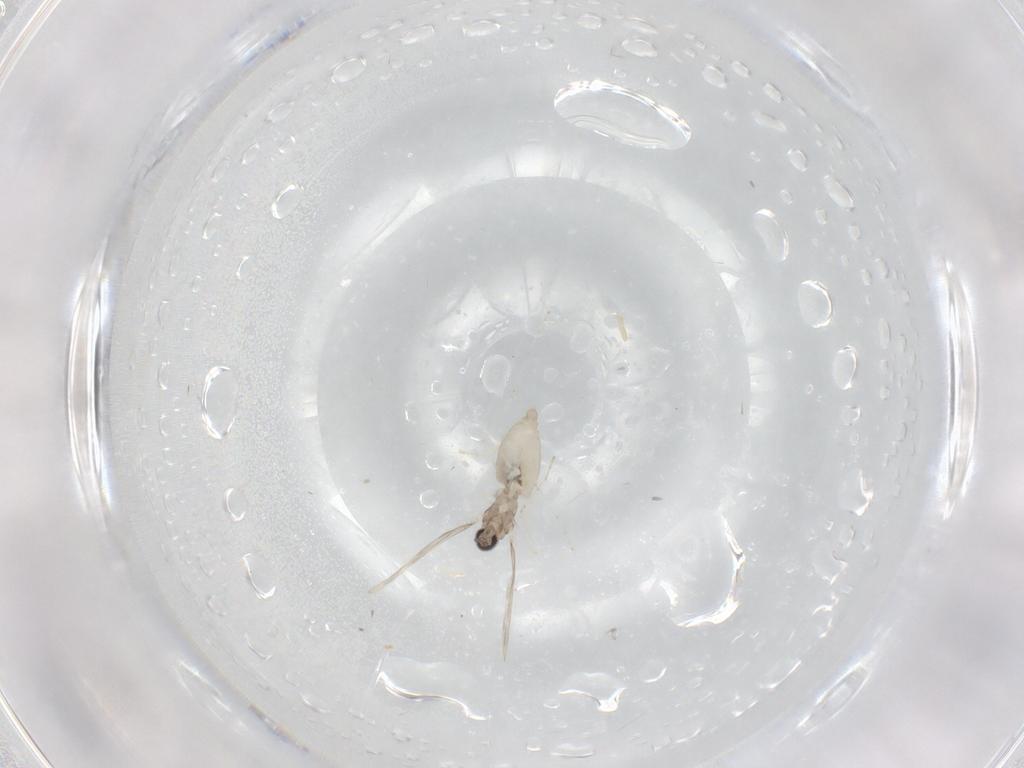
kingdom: Animalia
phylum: Arthropoda
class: Insecta
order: Diptera
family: Cecidomyiidae
